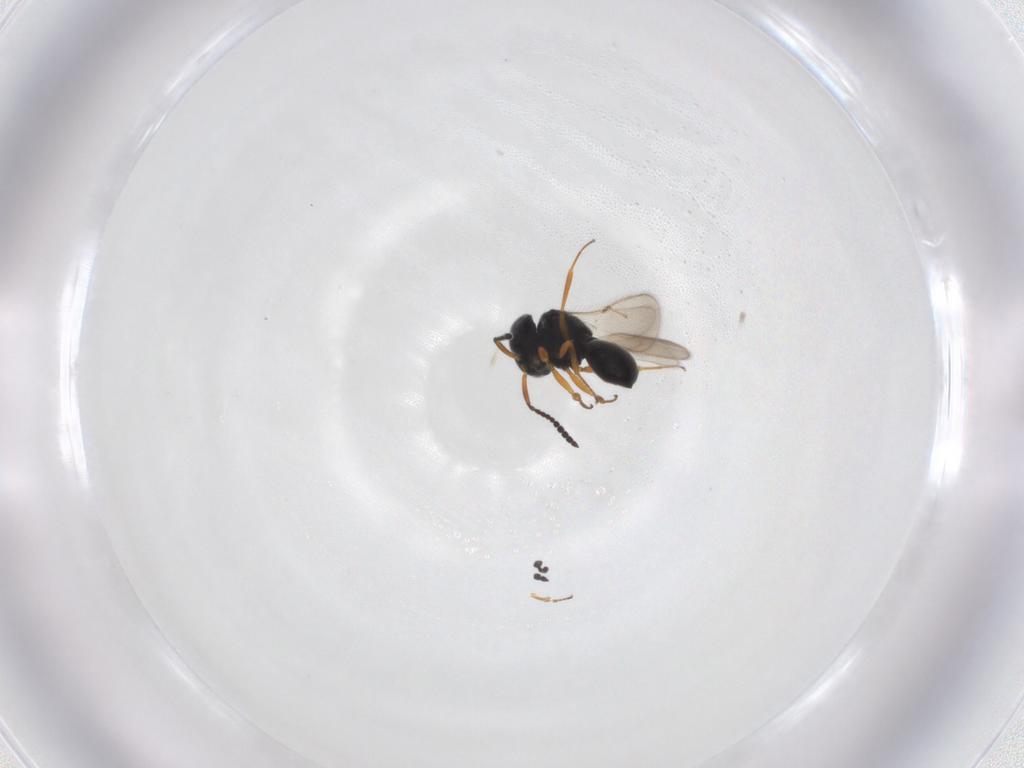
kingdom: Animalia
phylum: Arthropoda
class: Insecta
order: Hymenoptera
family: Scelionidae
